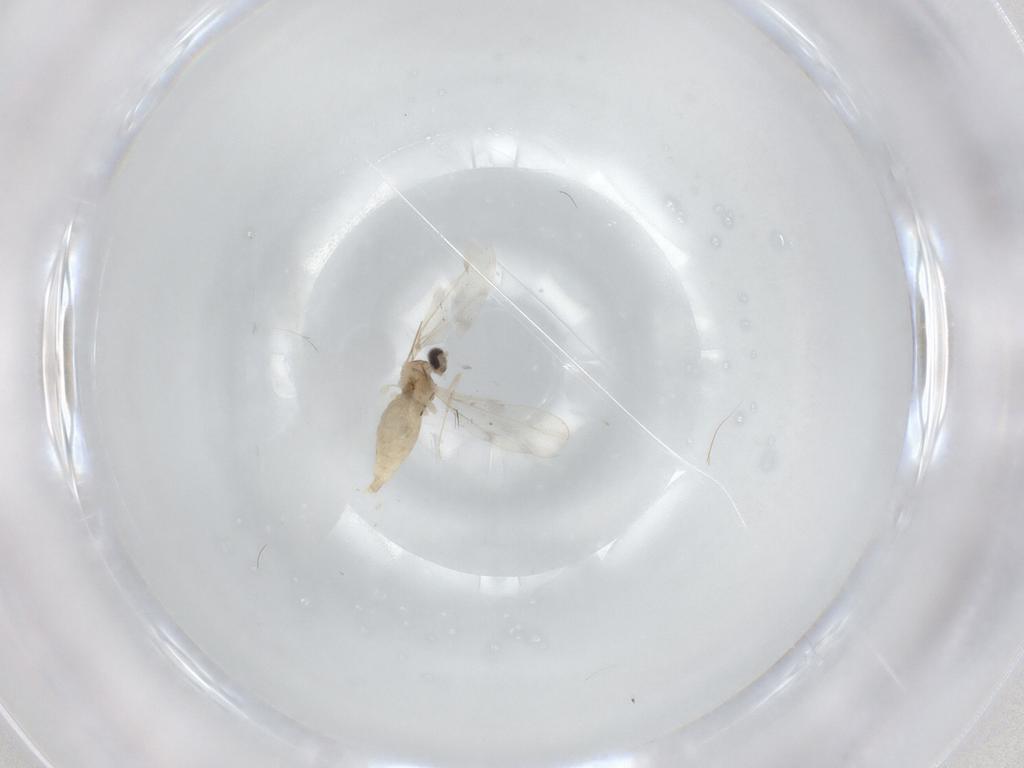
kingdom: Animalia
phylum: Arthropoda
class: Insecta
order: Diptera
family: Cecidomyiidae
